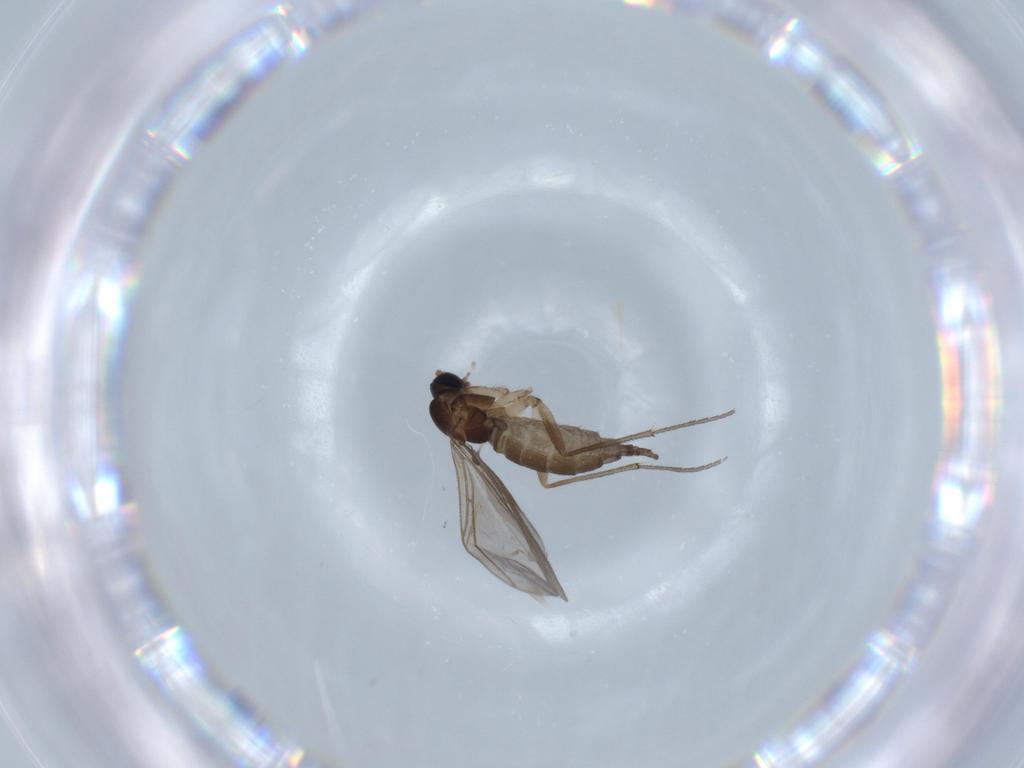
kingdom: Animalia
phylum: Arthropoda
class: Insecta
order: Diptera
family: Sciaridae
